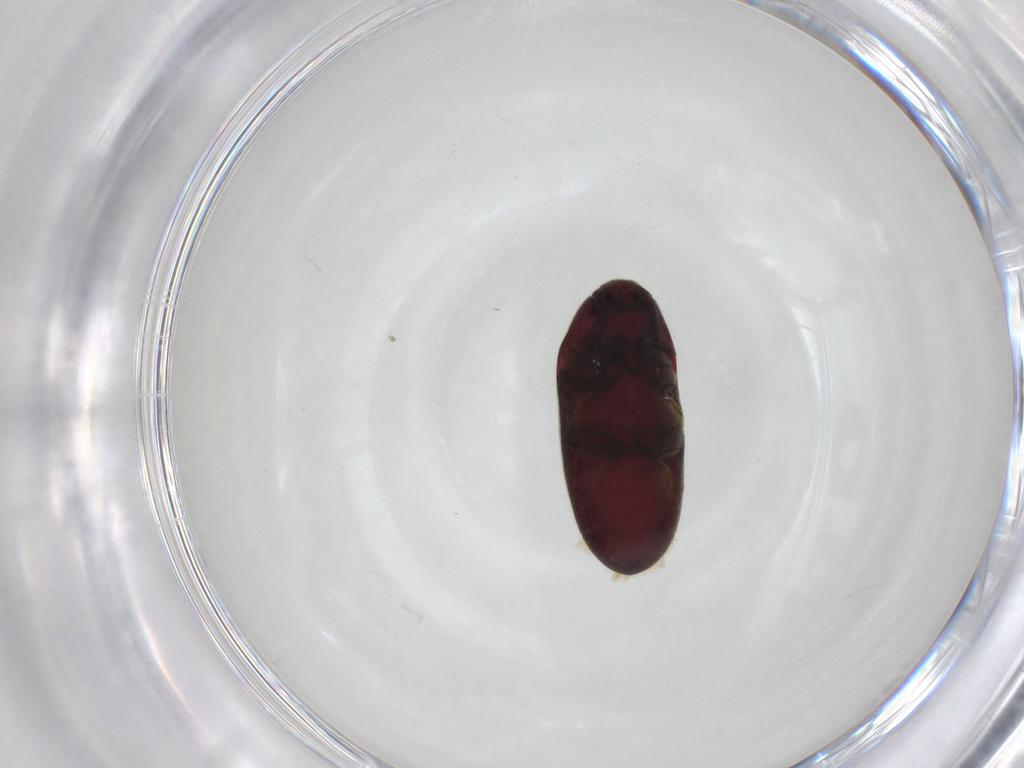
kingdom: Animalia
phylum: Arthropoda
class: Insecta
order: Coleoptera
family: Throscidae
